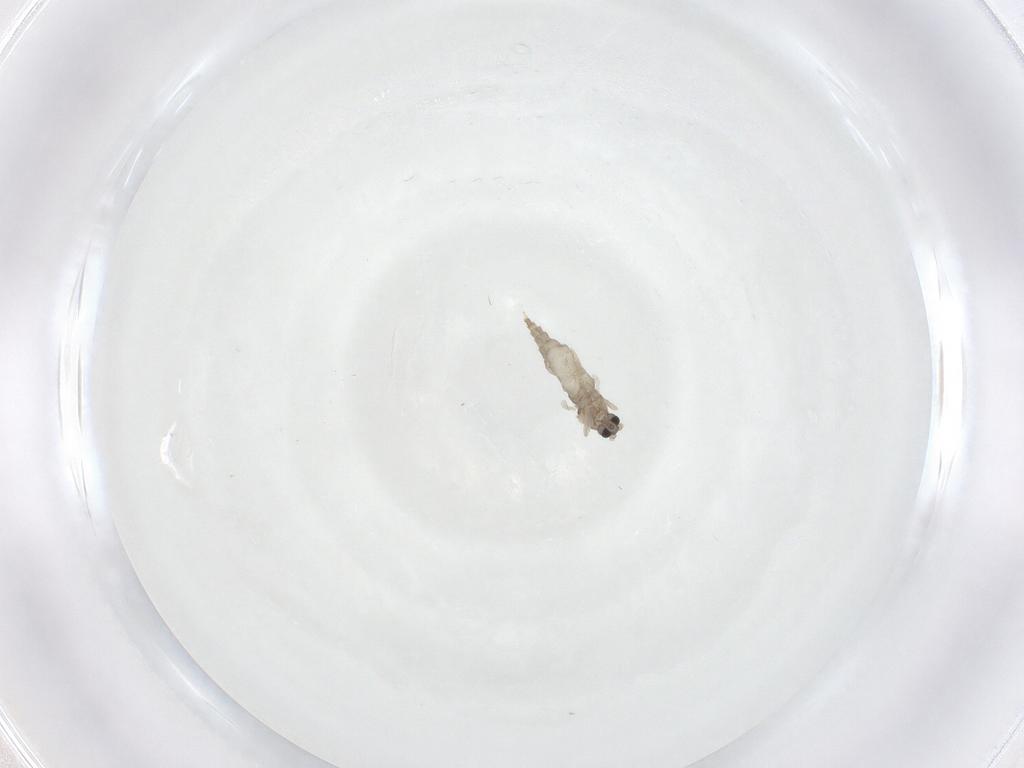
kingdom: Animalia
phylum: Arthropoda
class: Insecta
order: Diptera
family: Cecidomyiidae
